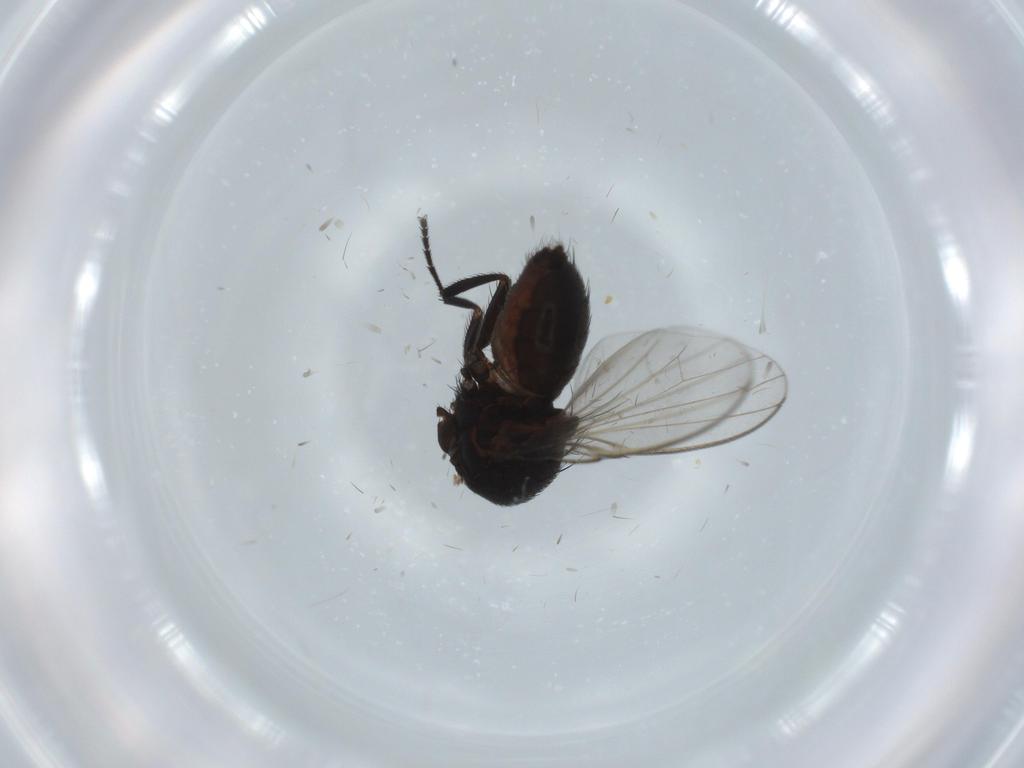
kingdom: Animalia
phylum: Arthropoda
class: Insecta
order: Diptera
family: Milichiidae
